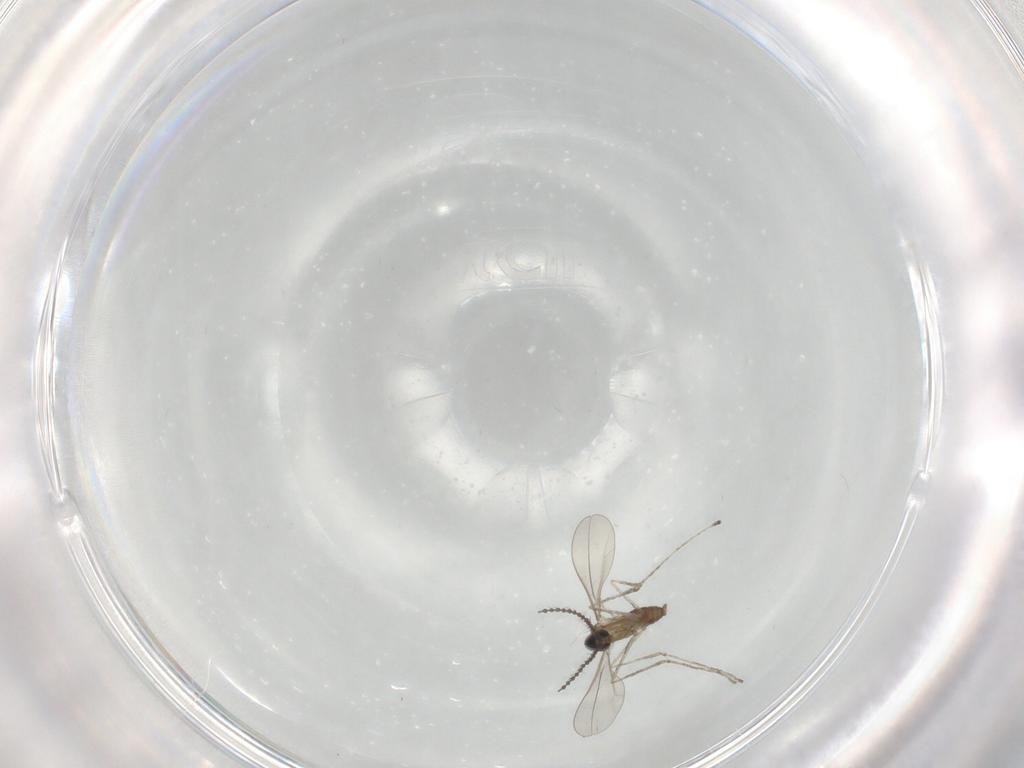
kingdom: Animalia
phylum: Arthropoda
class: Insecta
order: Diptera
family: Cecidomyiidae
